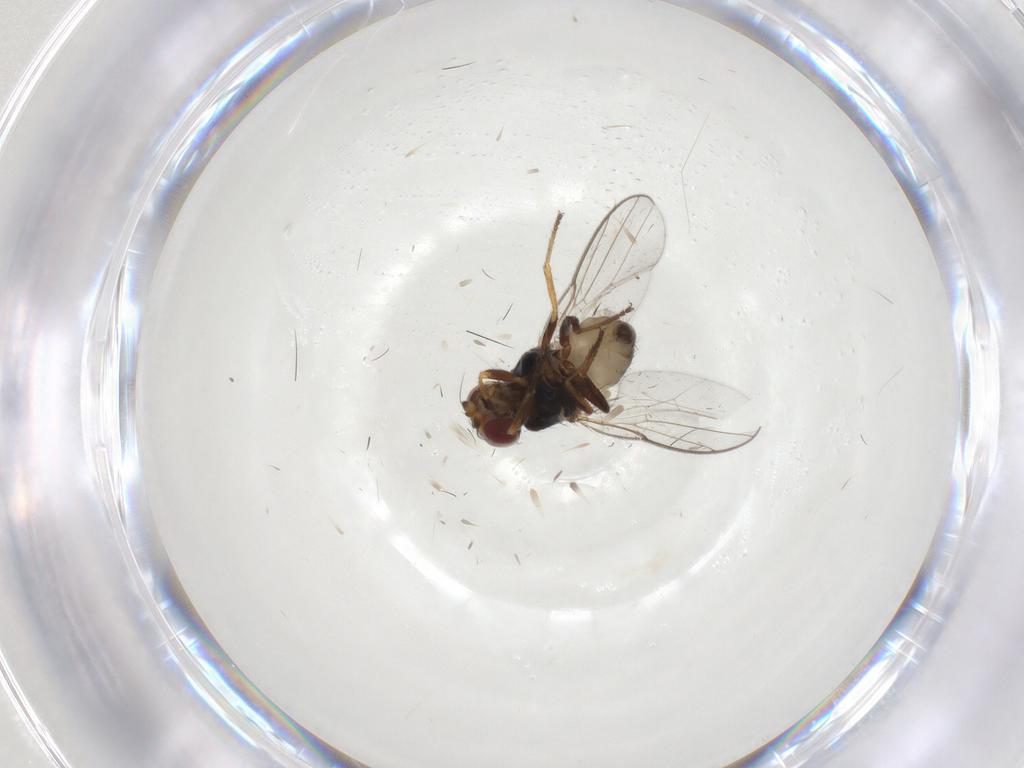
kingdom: Animalia
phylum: Arthropoda
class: Insecta
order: Diptera
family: Chloropidae
